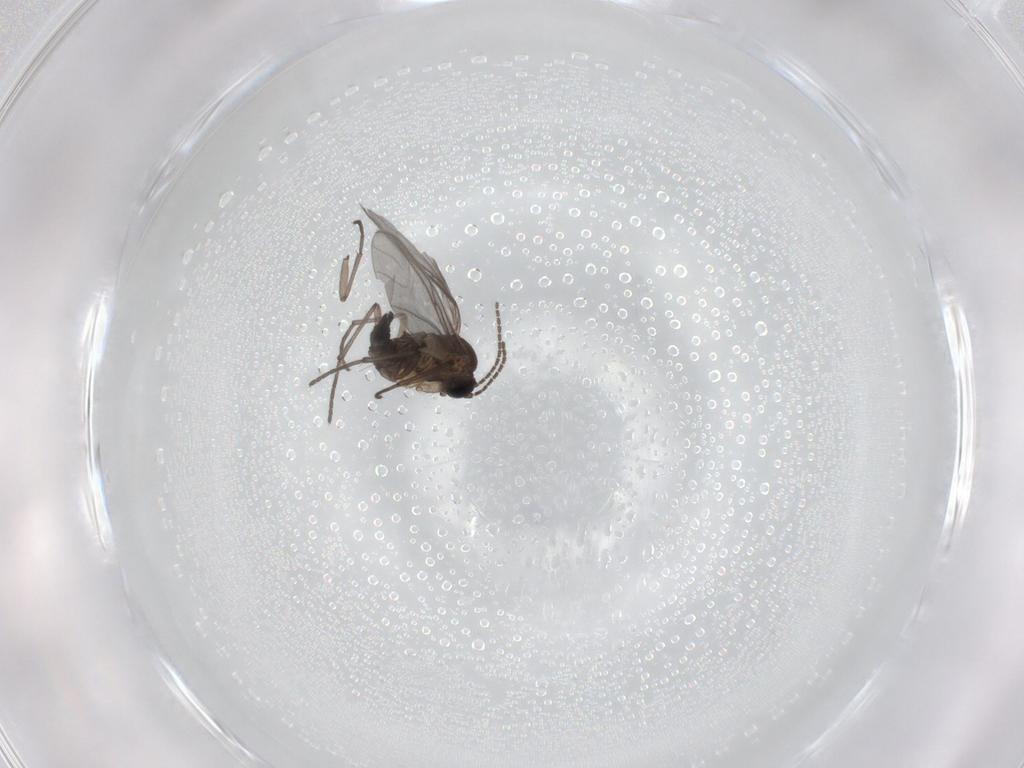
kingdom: Animalia
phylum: Arthropoda
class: Insecta
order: Diptera
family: Sciaridae
